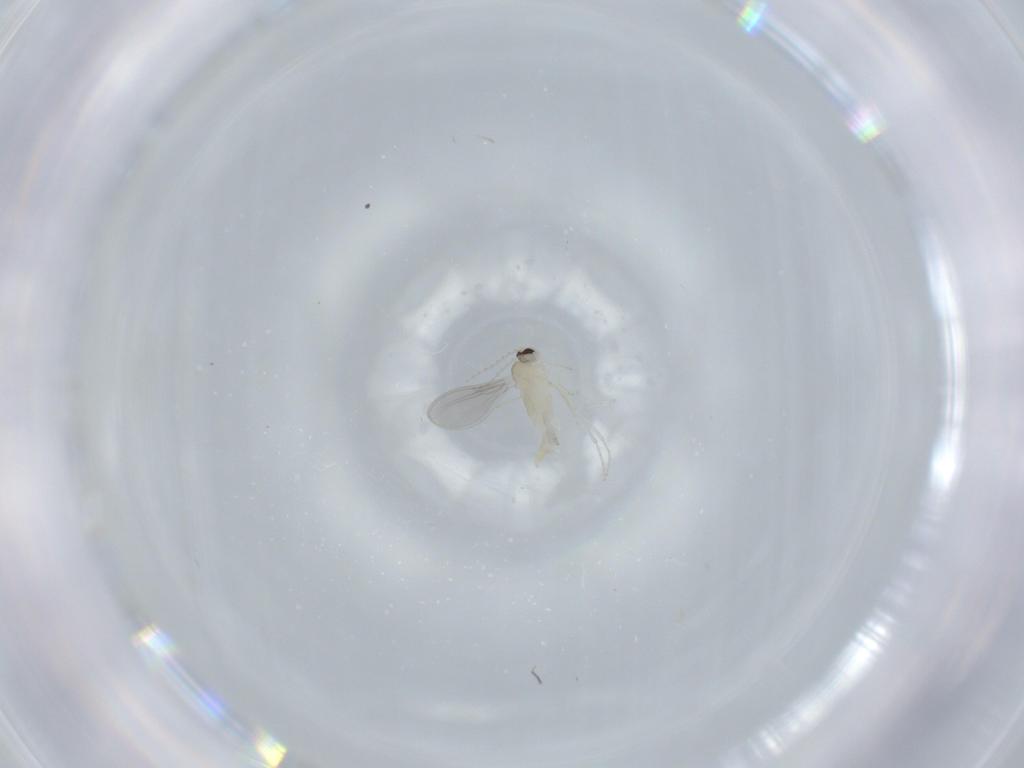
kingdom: Animalia
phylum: Arthropoda
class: Insecta
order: Diptera
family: Cecidomyiidae
